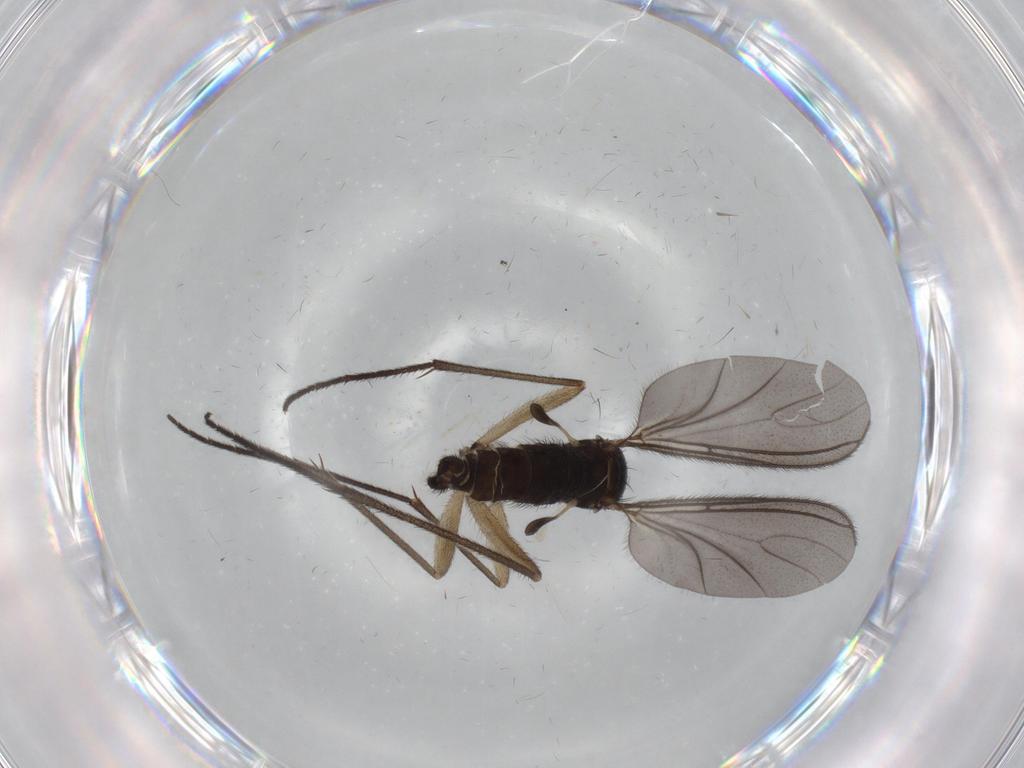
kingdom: Animalia
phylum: Arthropoda
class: Insecta
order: Diptera
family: Sciaridae
